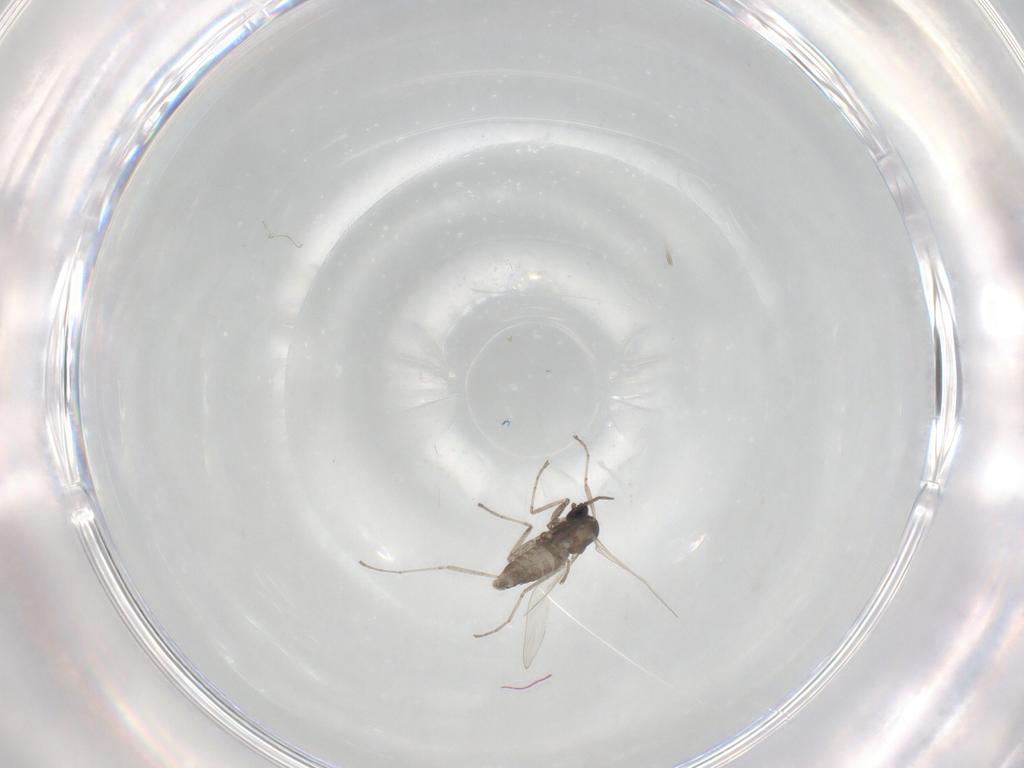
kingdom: Animalia
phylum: Arthropoda
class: Insecta
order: Diptera
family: Cecidomyiidae
